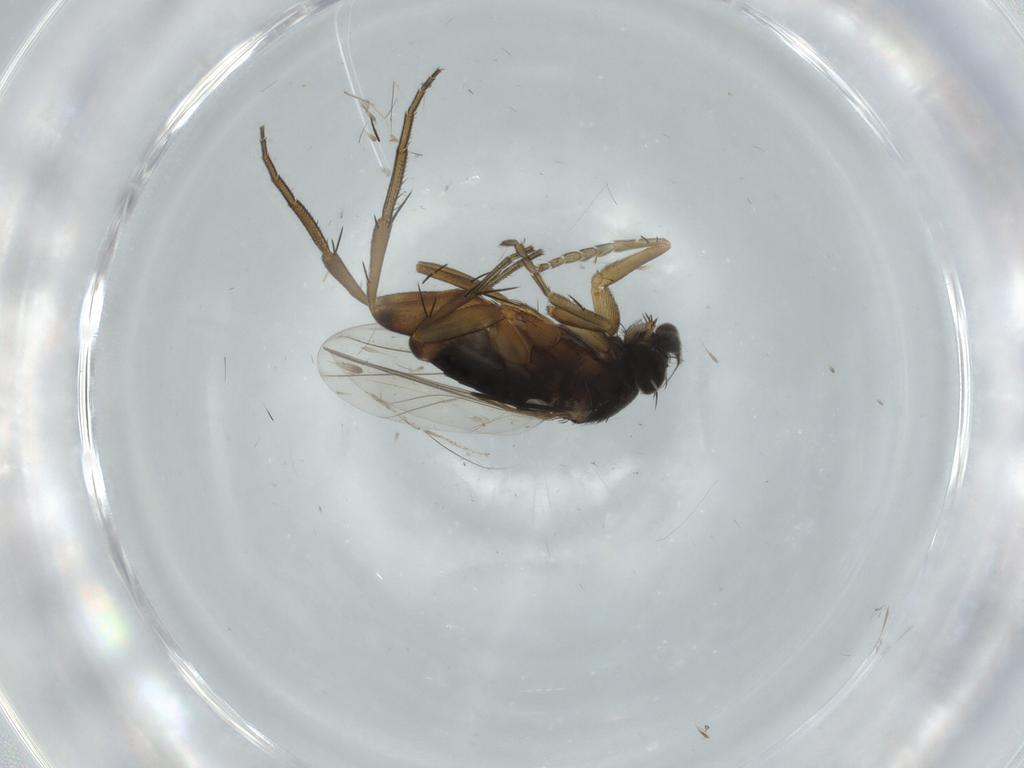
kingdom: Animalia
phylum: Arthropoda
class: Insecta
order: Diptera
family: Phoridae
